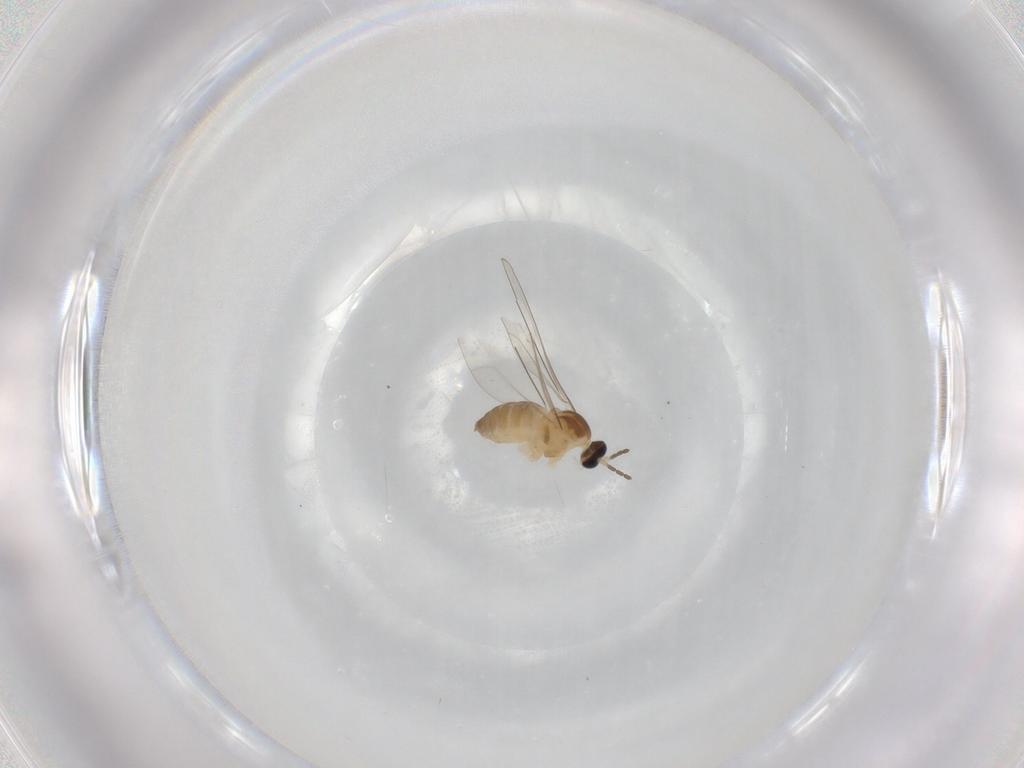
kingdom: Animalia
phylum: Arthropoda
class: Insecta
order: Diptera
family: Cecidomyiidae
